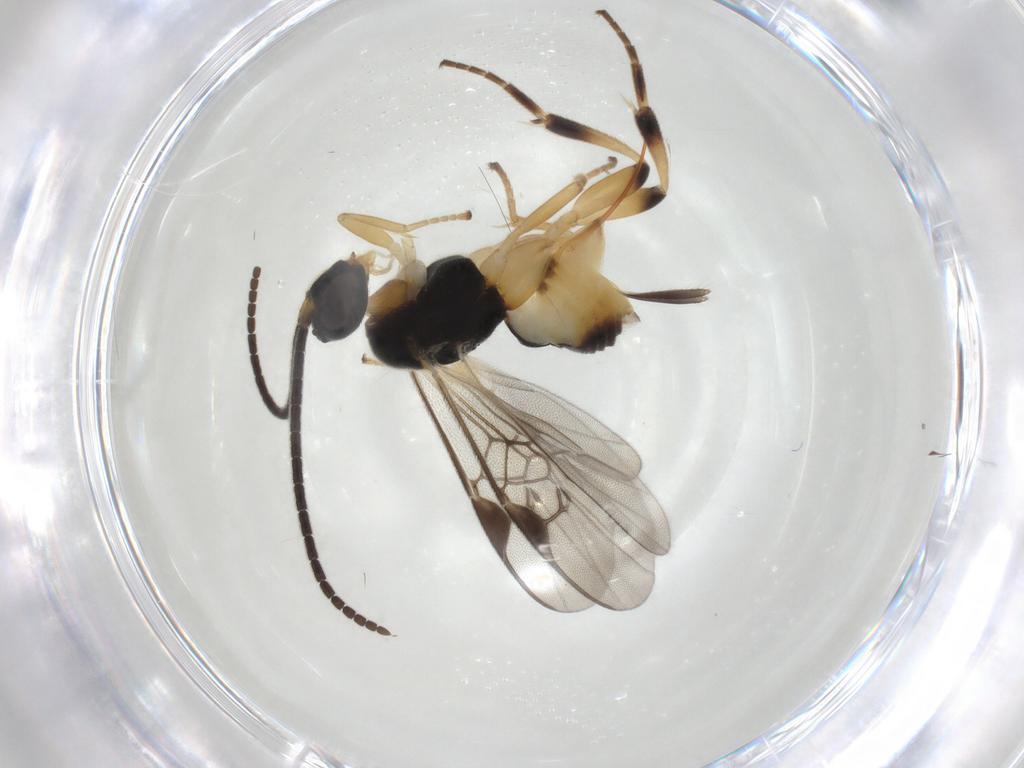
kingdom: Animalia
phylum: Arthropoda
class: Insecta
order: Hymenoptera
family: Braconidae
